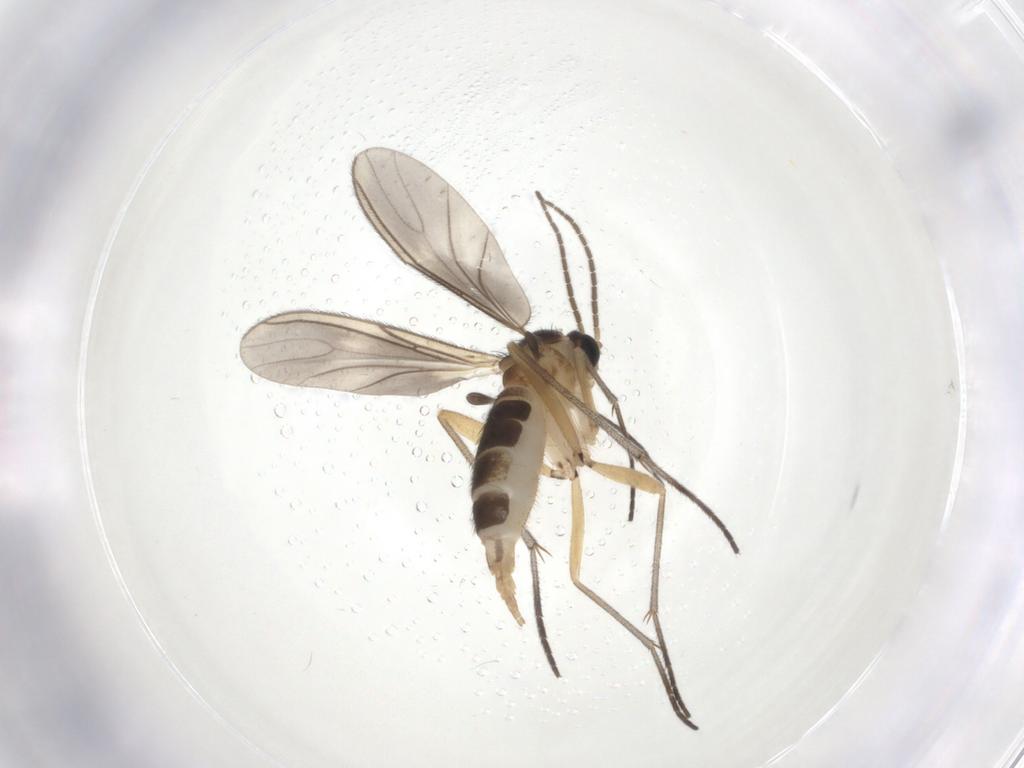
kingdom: Animalia
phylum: Arthropoda
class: Insecta
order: Diptera
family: Sciaridae
